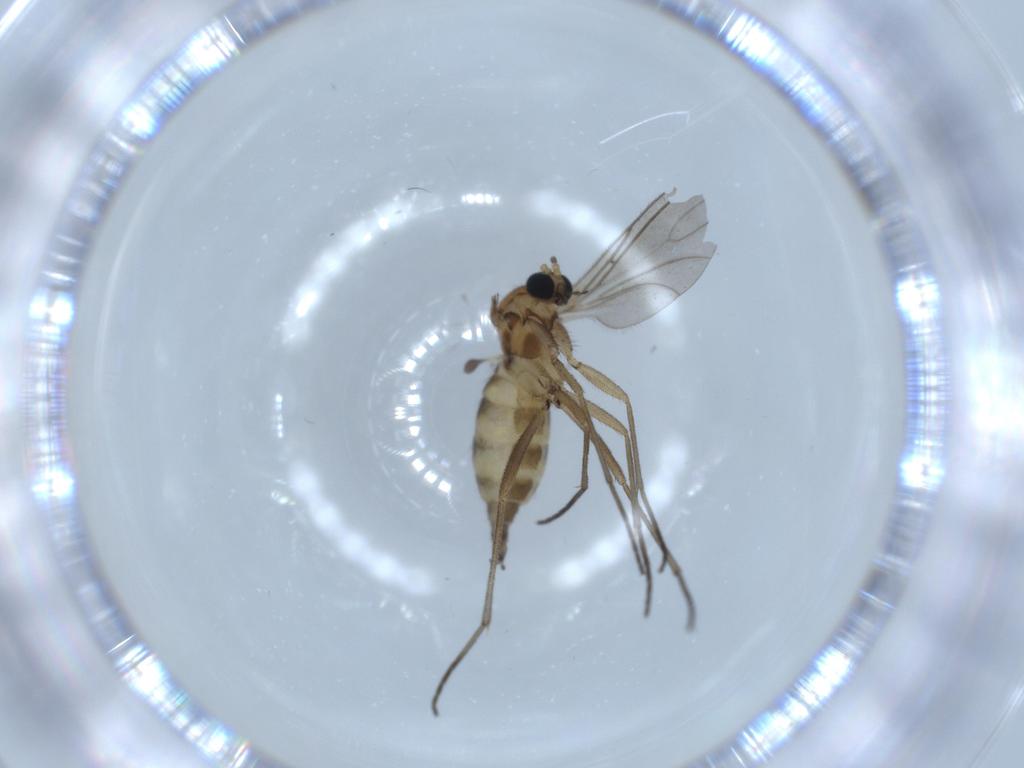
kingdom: Animalia
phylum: Arthropoda
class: Insecta
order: Diptera
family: Sciaridae
